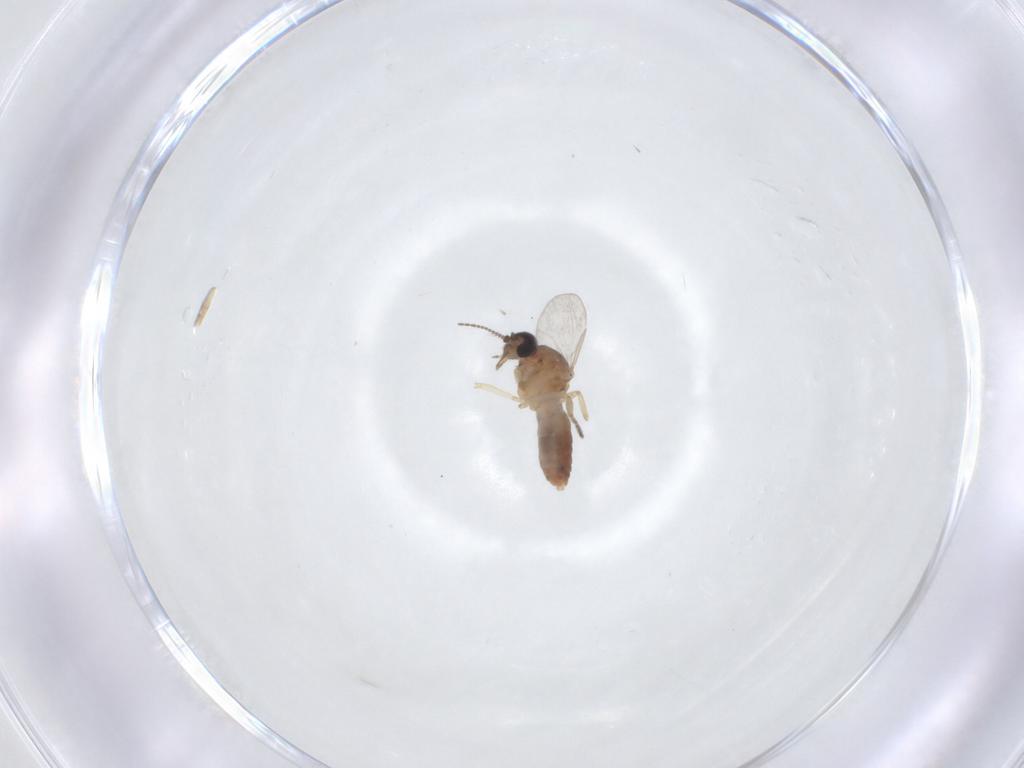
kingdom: Animalia
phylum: Arthropoda
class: Insecta
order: Diptera
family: Ceratopogonidae
